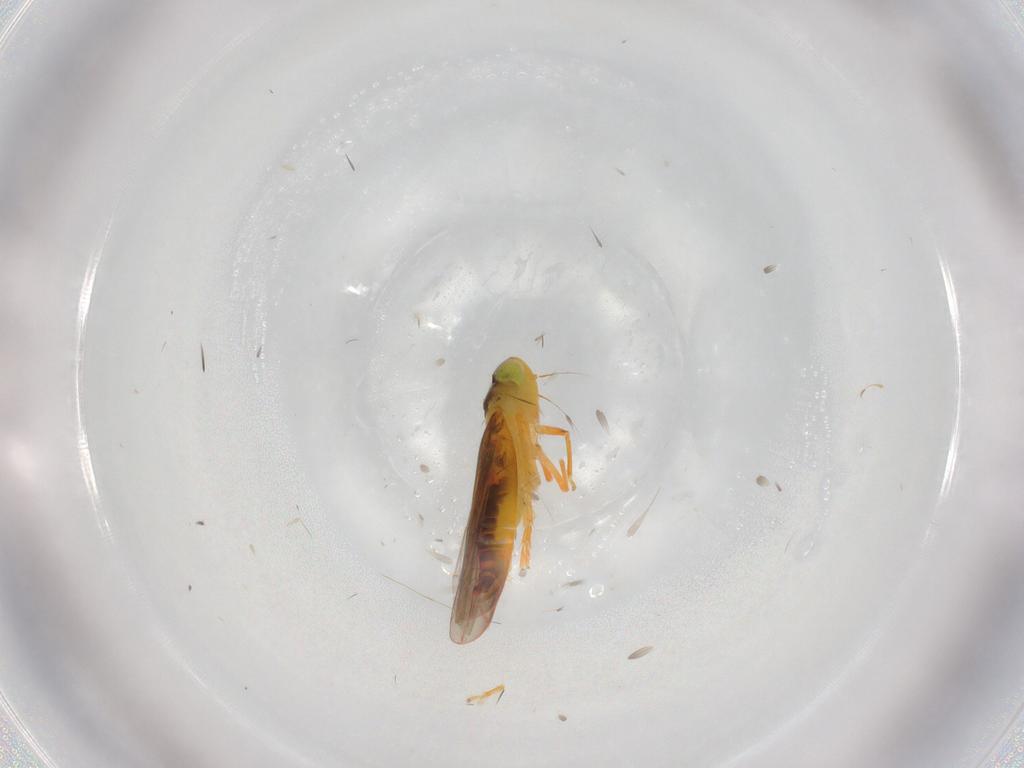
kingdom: Animalia
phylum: Arthropoda
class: Insecta
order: Hemiptera
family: Cicadellidae
